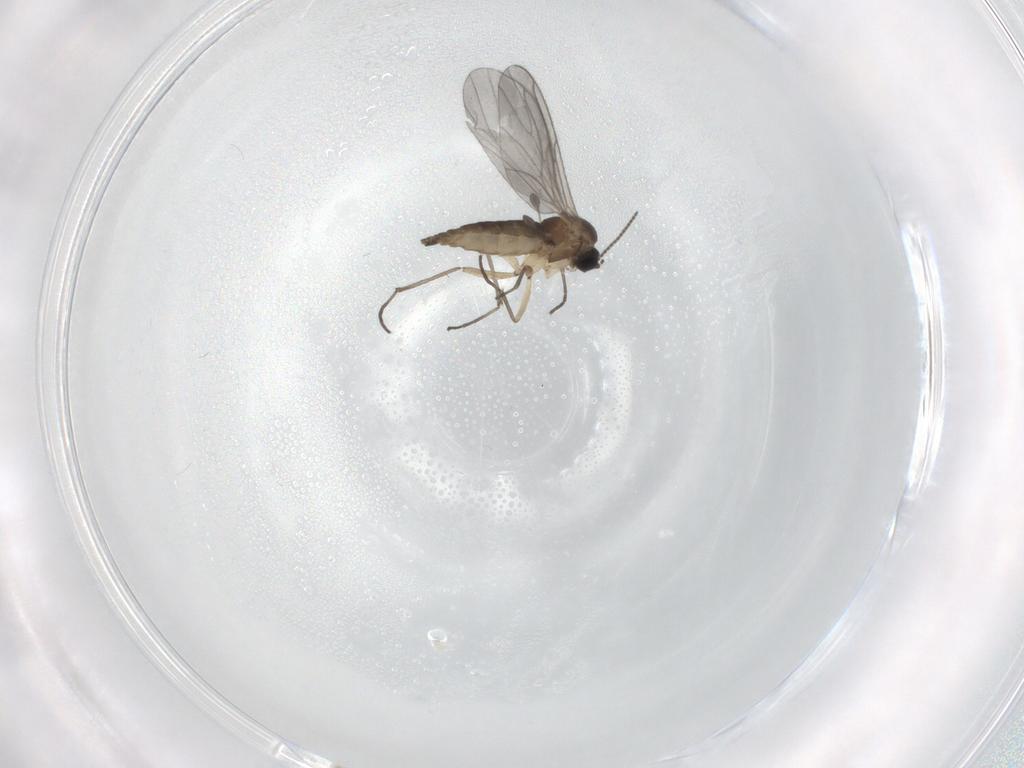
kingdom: Animalia
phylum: Arthropoda
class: Insecta
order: Diptera
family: Sciaridae
